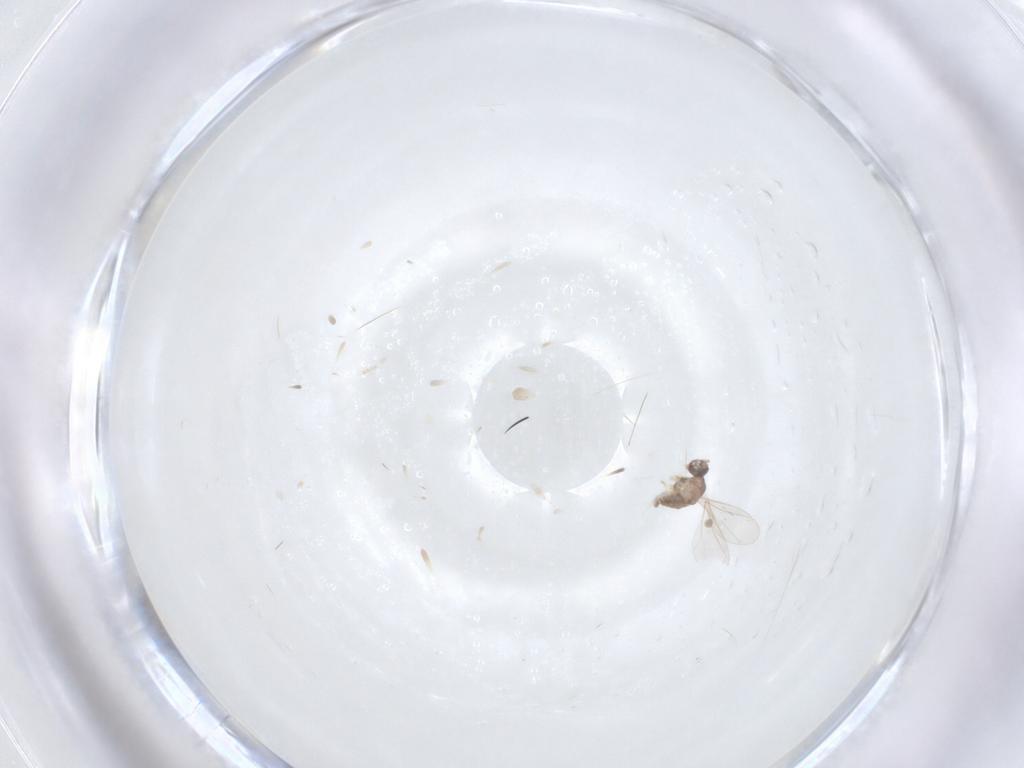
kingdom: Animalia
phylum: Arthropoda
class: Insecta
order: Diptera
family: Cecidomyiidae
